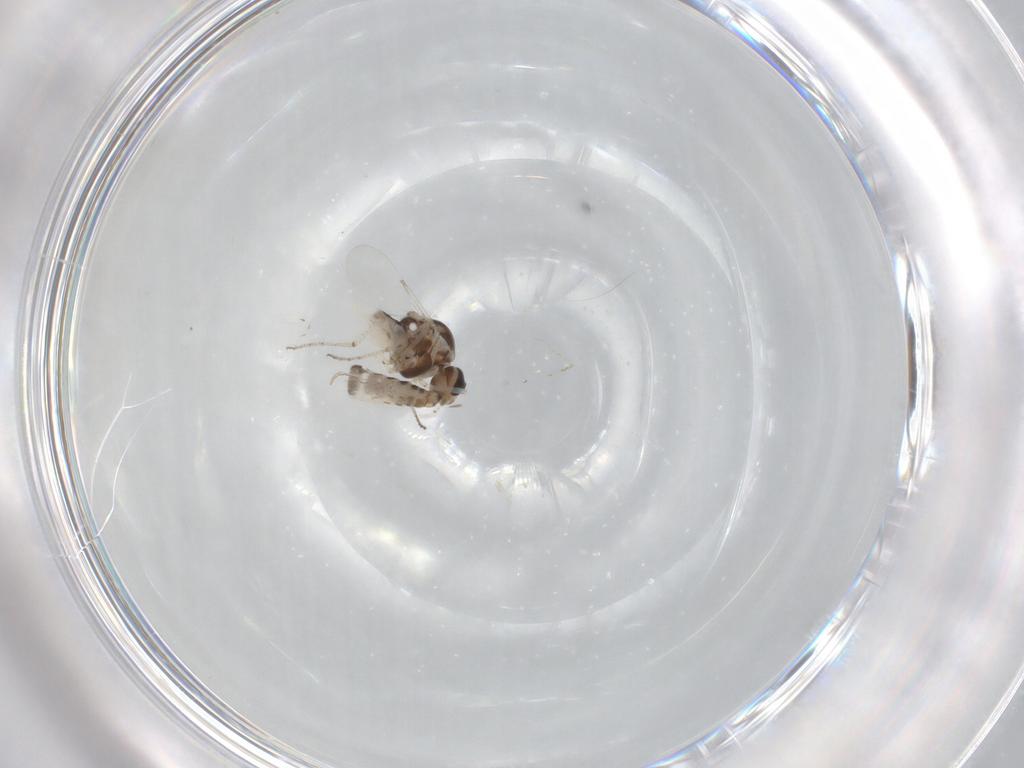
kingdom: Animalia
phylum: Arthropoda
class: Insecta
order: Diptera
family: Ceratopogonidae
